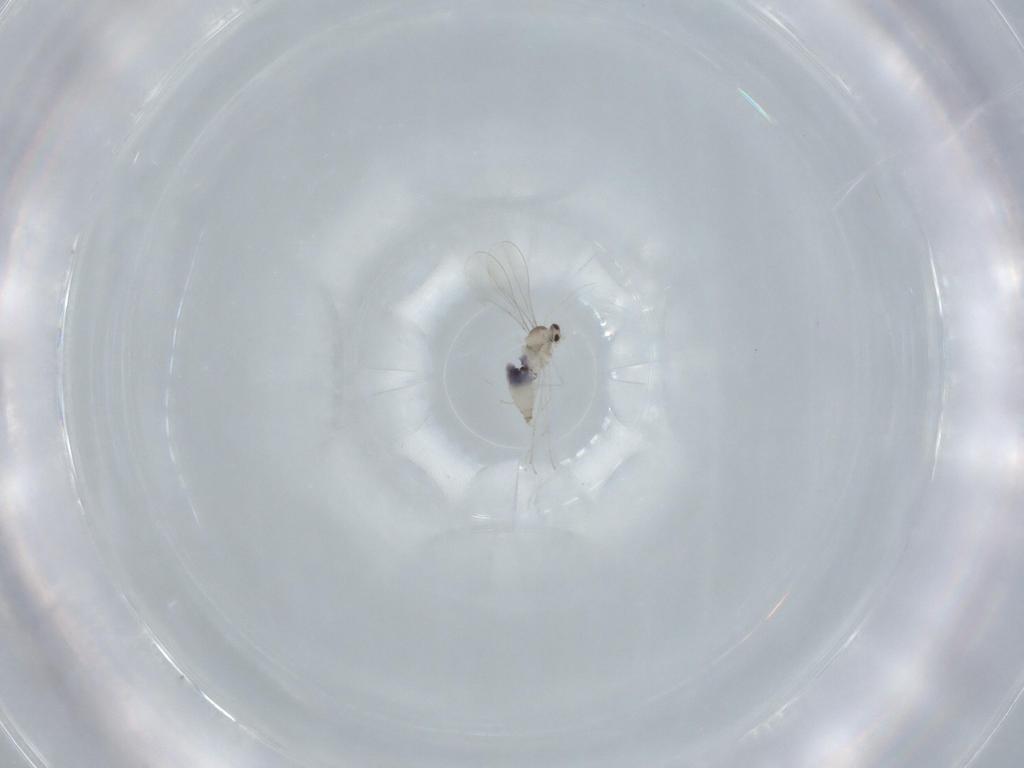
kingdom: Animalia
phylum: Arthropoda
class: Insecta
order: Diptera
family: Cecidomyiidae
